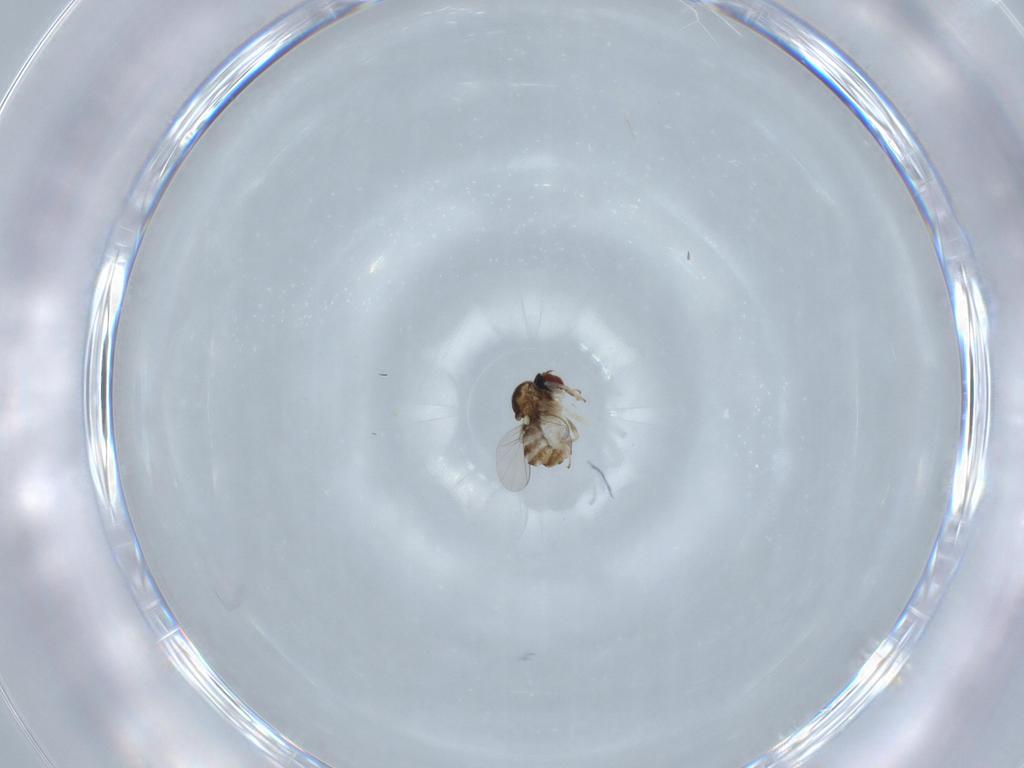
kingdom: Animalia
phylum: Arthropoda
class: Insecta
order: Diptera
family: Bombyliidae
